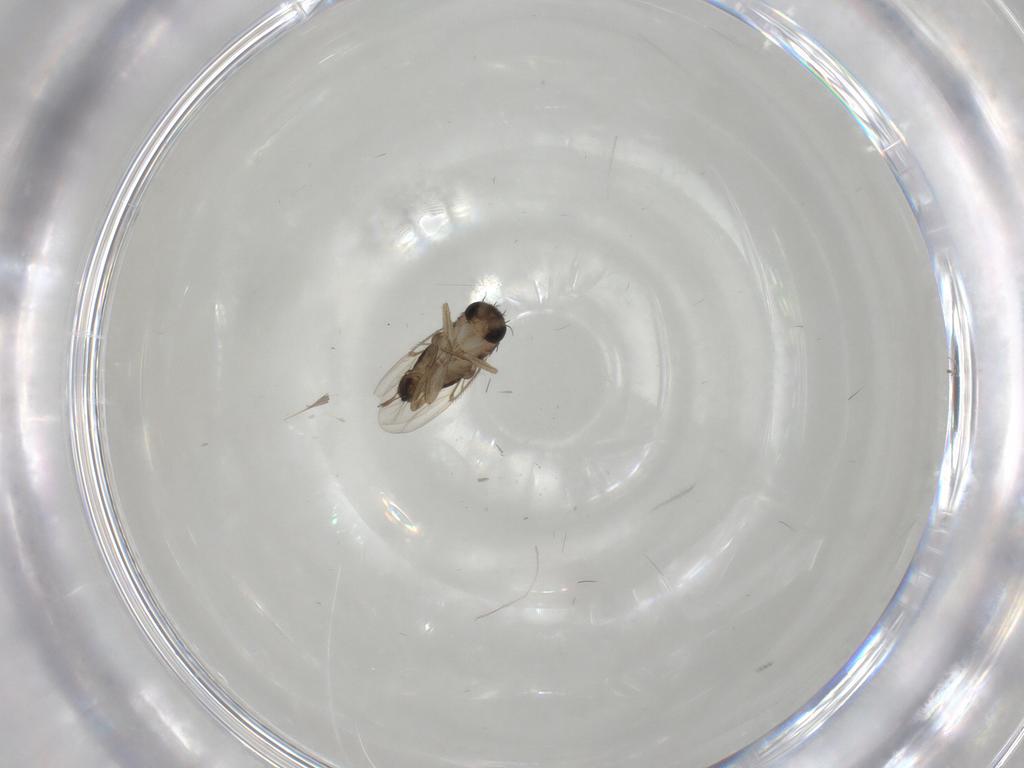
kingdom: Animalia
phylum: Arthropoda
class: Insecta
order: Diptera
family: Phoridae
